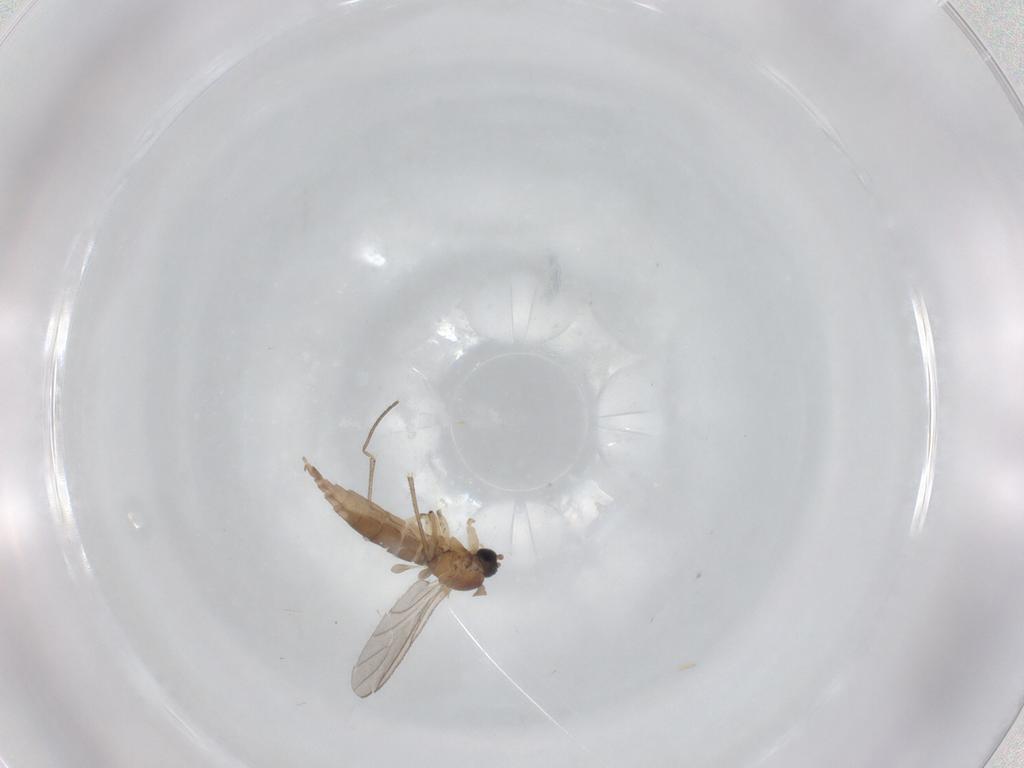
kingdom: Animalia
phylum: Arthropoda
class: Insecta
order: Diptera
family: Sciaridae
